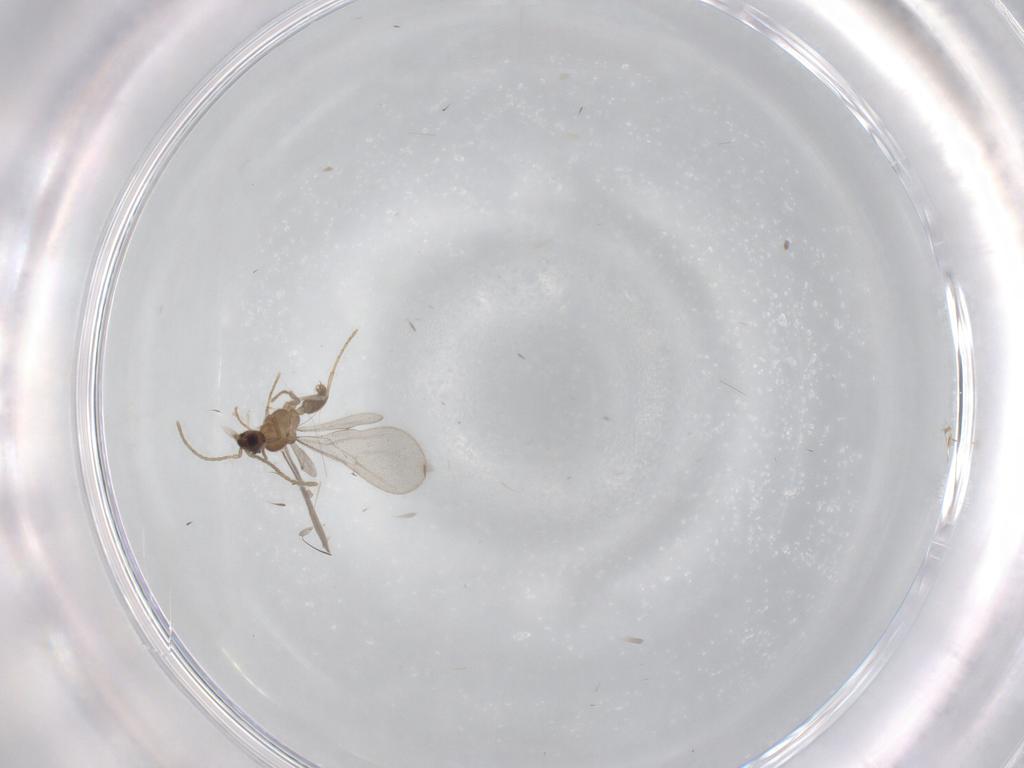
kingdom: Animalia
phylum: Arthropoda
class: Insecta
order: Hymenoptera
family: Formicidae
